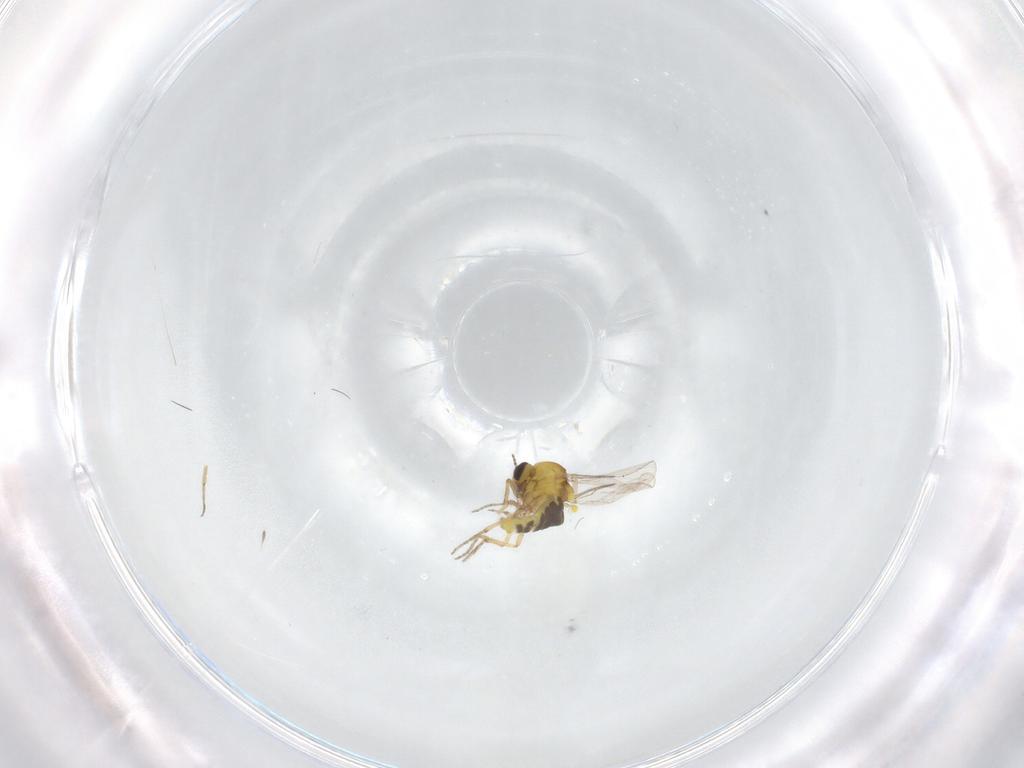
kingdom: Animalia
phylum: Arthropoda
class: Insecta
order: Diptera
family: Ceratopogonidae
